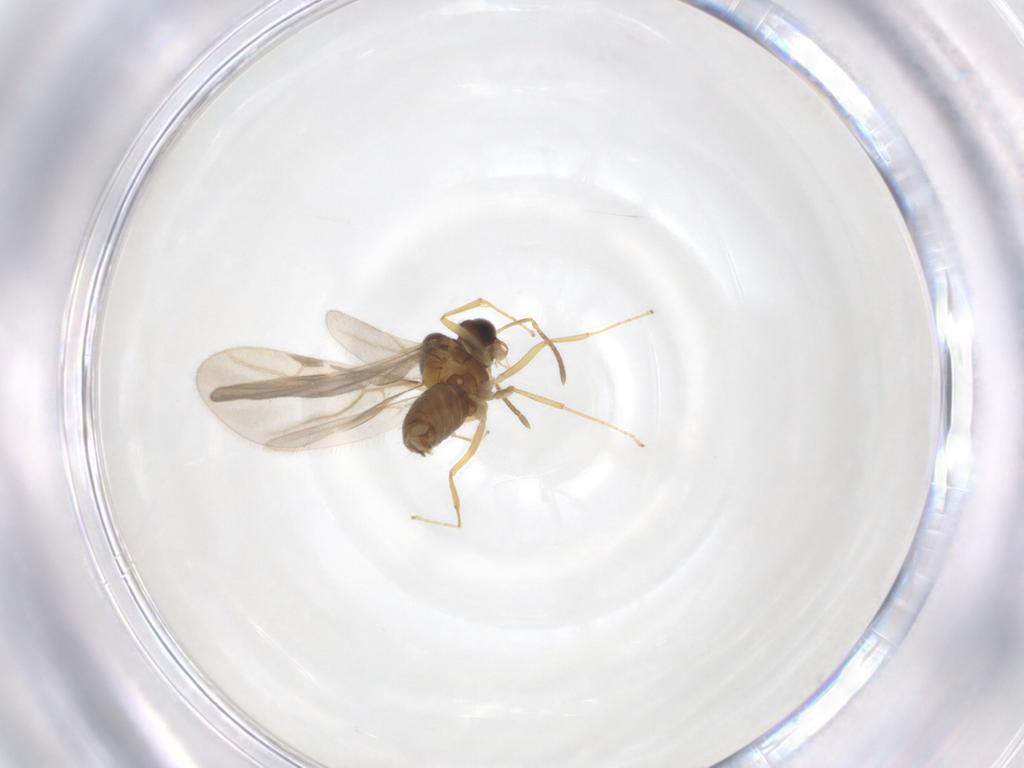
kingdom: Animalia
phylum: Arthropoda
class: Insecta
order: Hymenoptera
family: Formicidae
